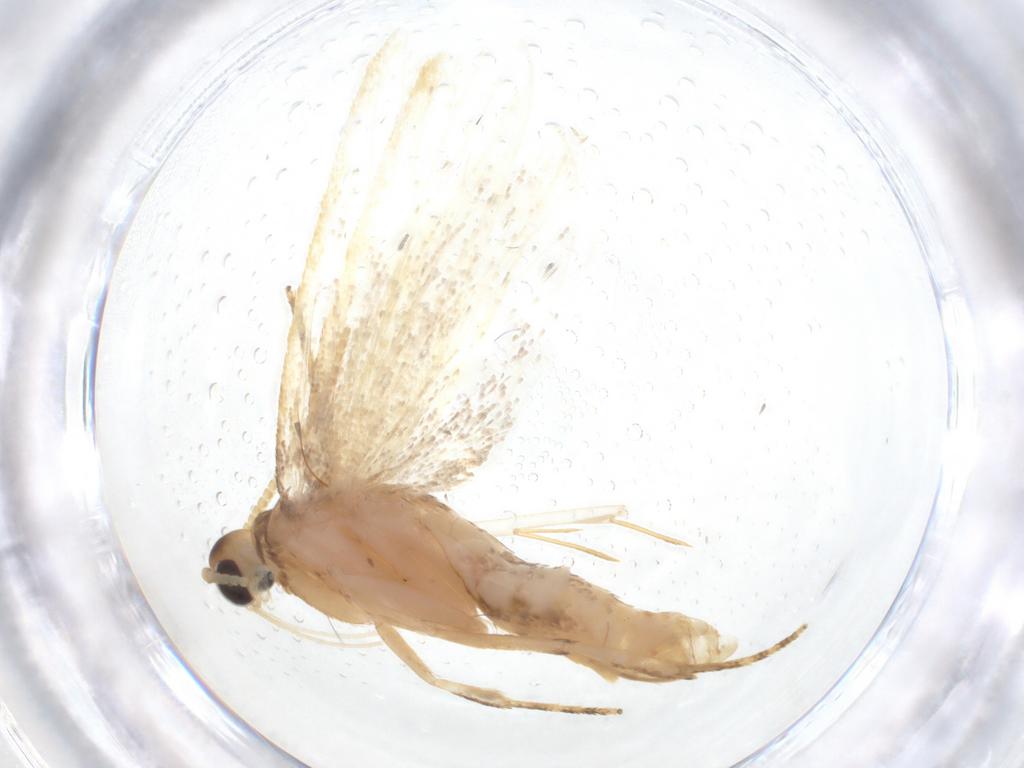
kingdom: Animalia
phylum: Arthropoda
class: Insecta
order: Lepidoptera
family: Lecithoceridae
